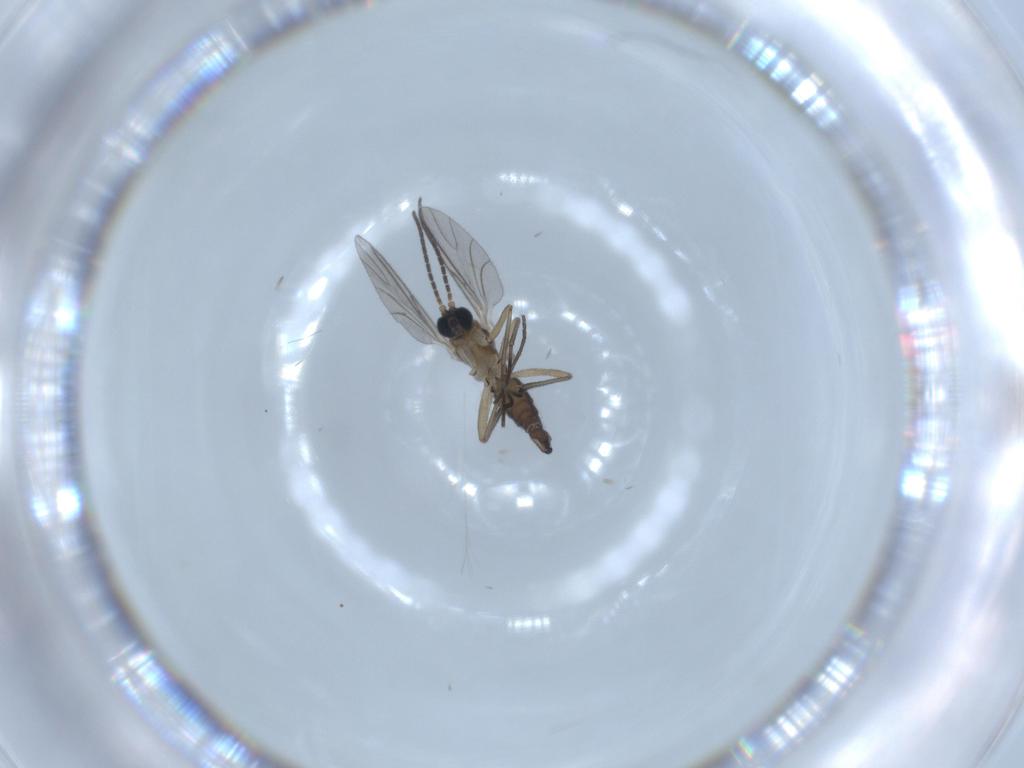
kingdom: Animalia
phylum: Arthropoda
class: Insecta
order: Diptera
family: Sciaridae
